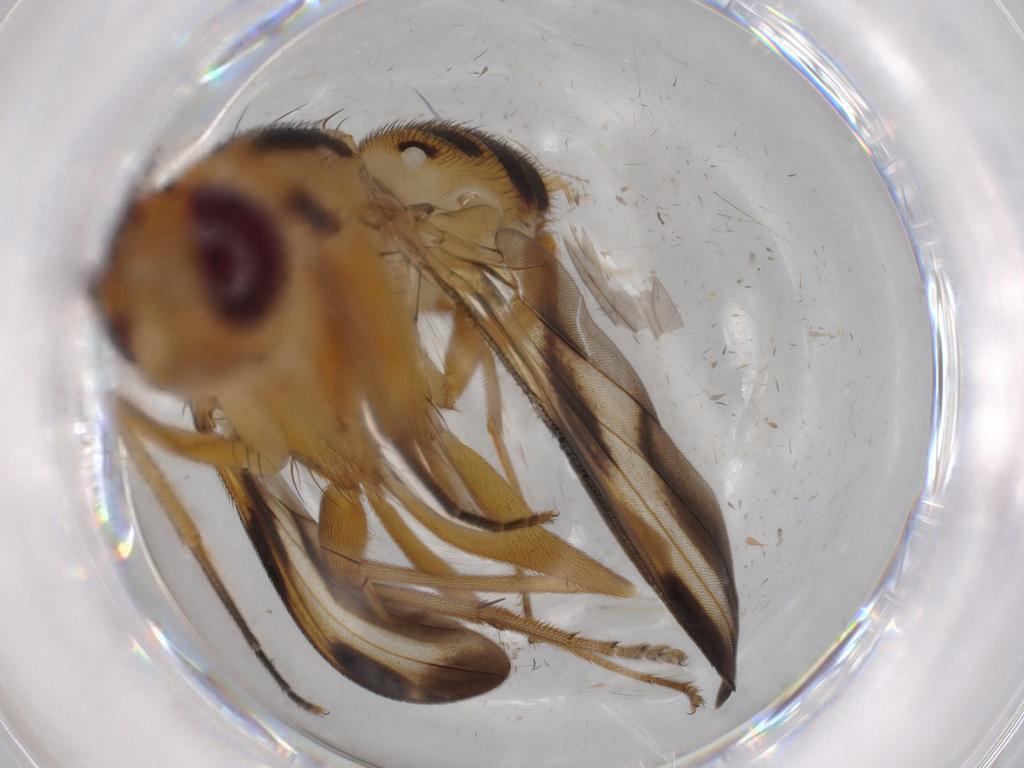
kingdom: Animalia
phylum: Arthropoda
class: Insecta
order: Diptera
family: Clusiidae
